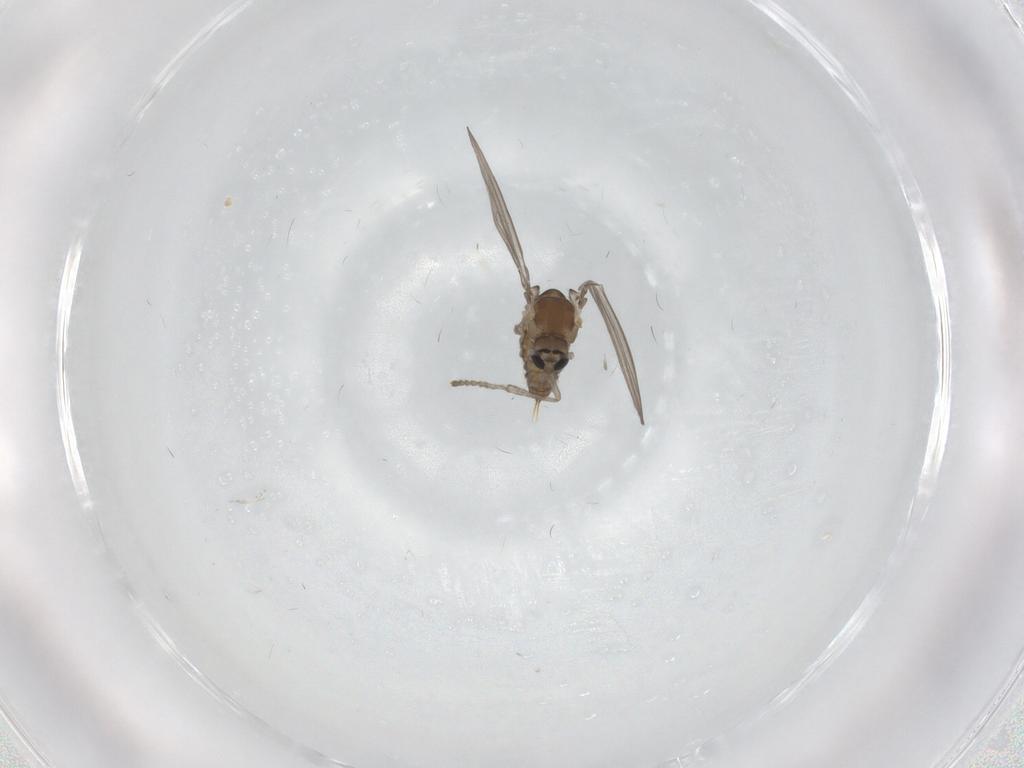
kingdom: Animalia
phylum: Arthropoda
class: Insecta
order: Diptera
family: Psychodidae
